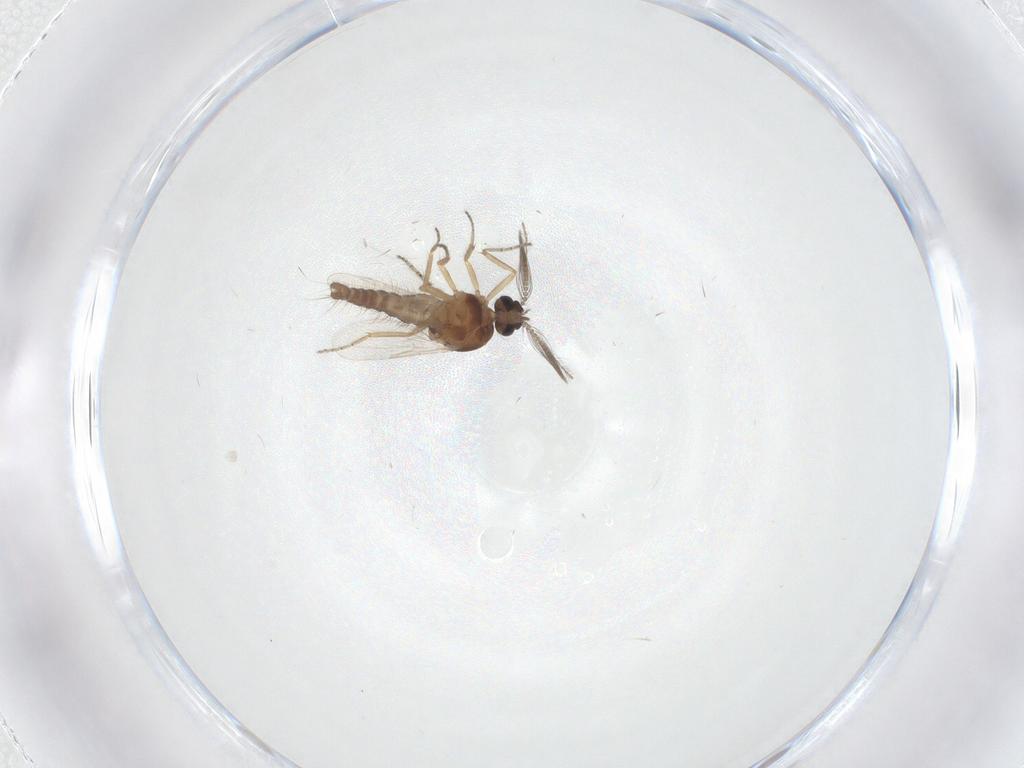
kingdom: Animalia
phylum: Arthropoda
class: Insecta
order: Diptera
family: Ceratopogonidae
